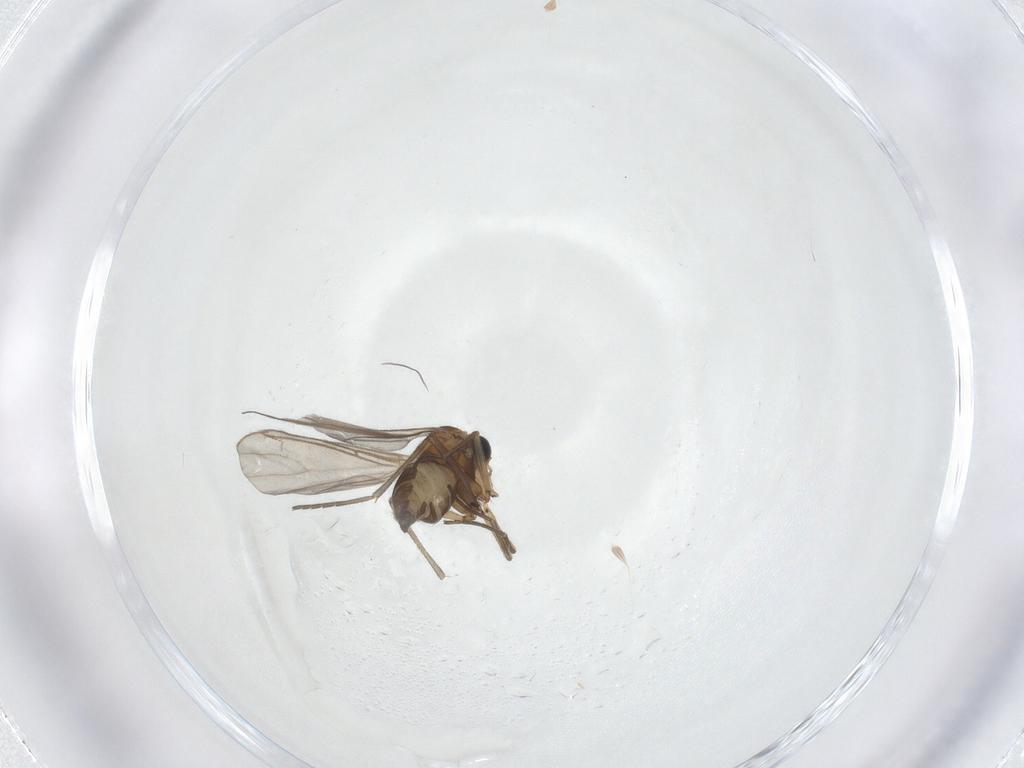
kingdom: Animalia
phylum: Arthropoda
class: Insecta
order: Diptera
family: Sciaridae
